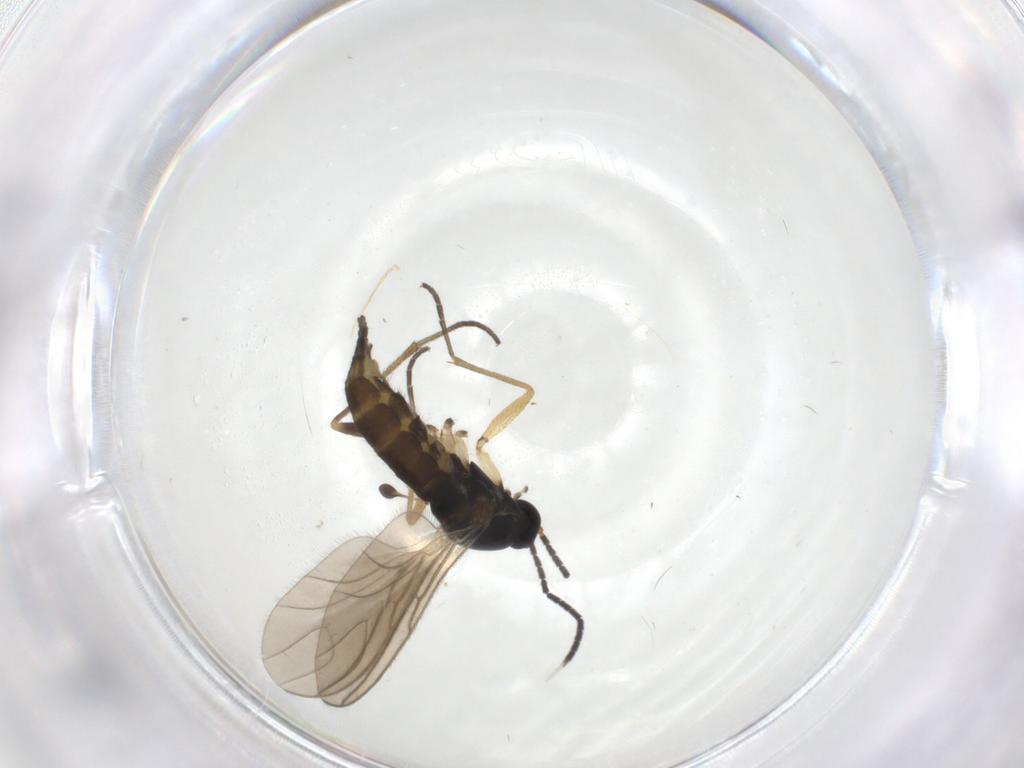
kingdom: Animalia
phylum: Arthropoda
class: Insecta
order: Diptera
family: Sciaridae
